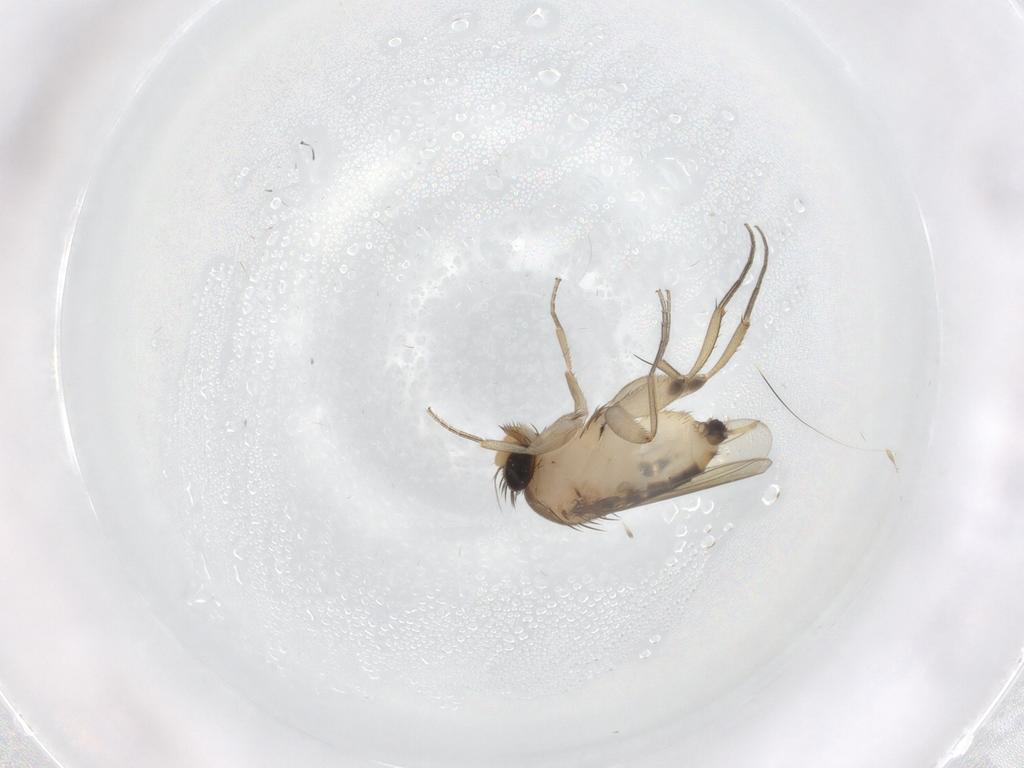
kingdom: Animalia
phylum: Arthropoda
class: Insecta
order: Diptera
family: Phoridae
